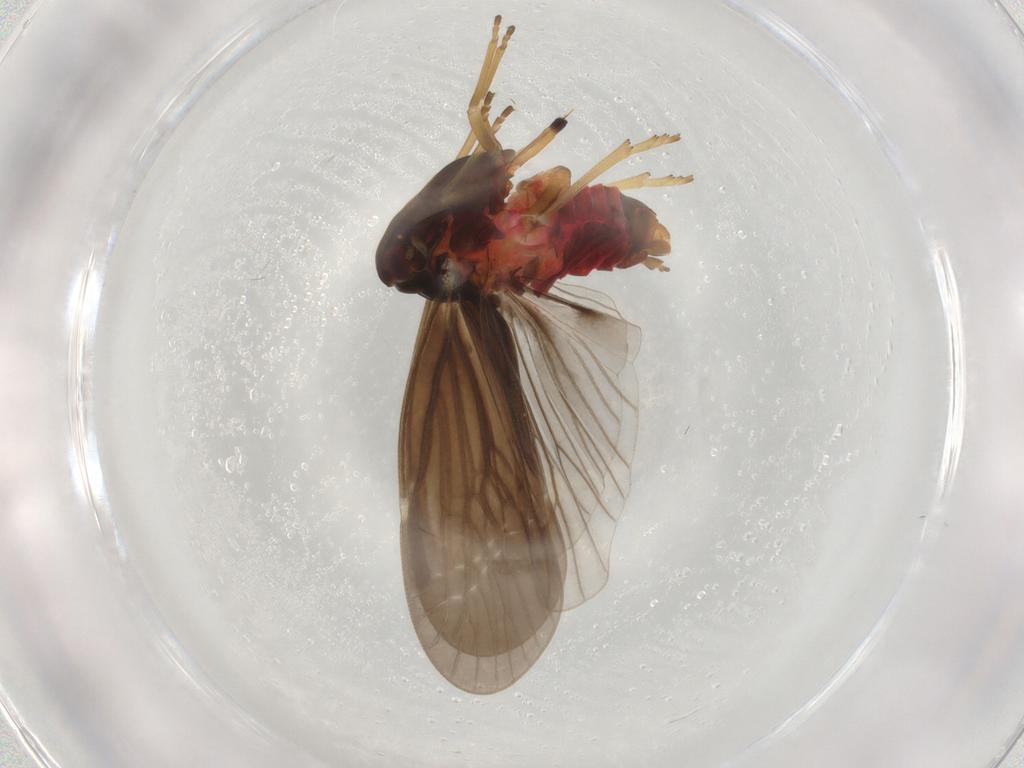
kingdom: Animalia
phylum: Arthropoda
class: Insecta
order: Hemiptera
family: Derbidae
